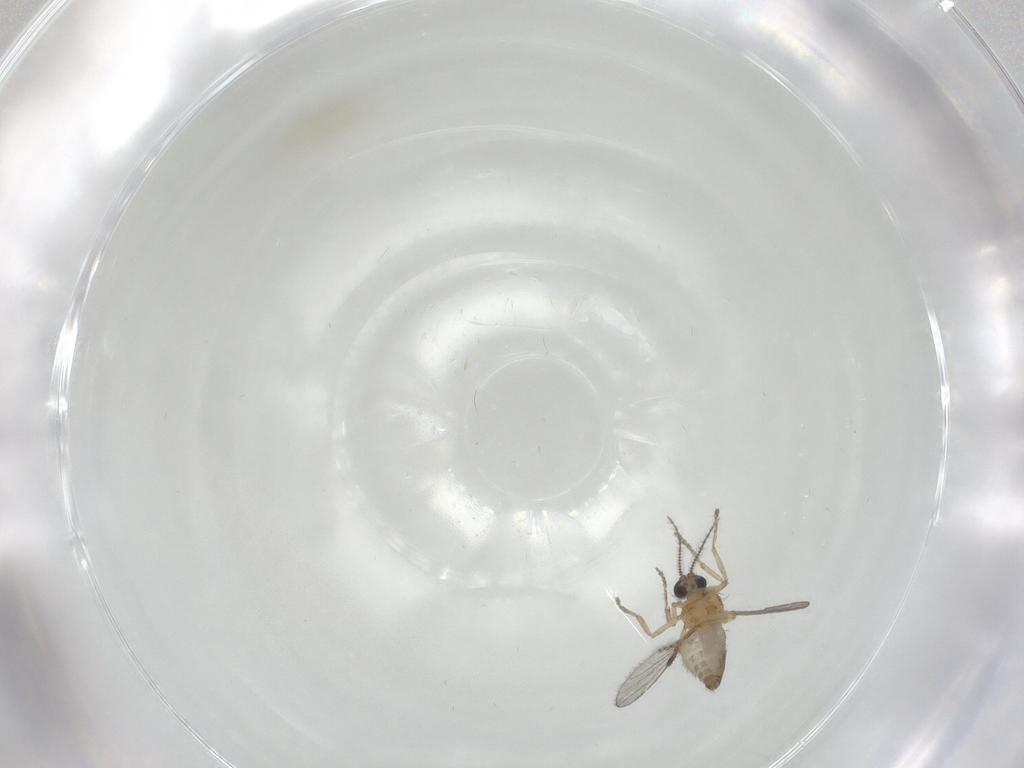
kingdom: Animalia
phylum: Arthropoda
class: Insecta
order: Diptera
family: Ceratopogonidae
